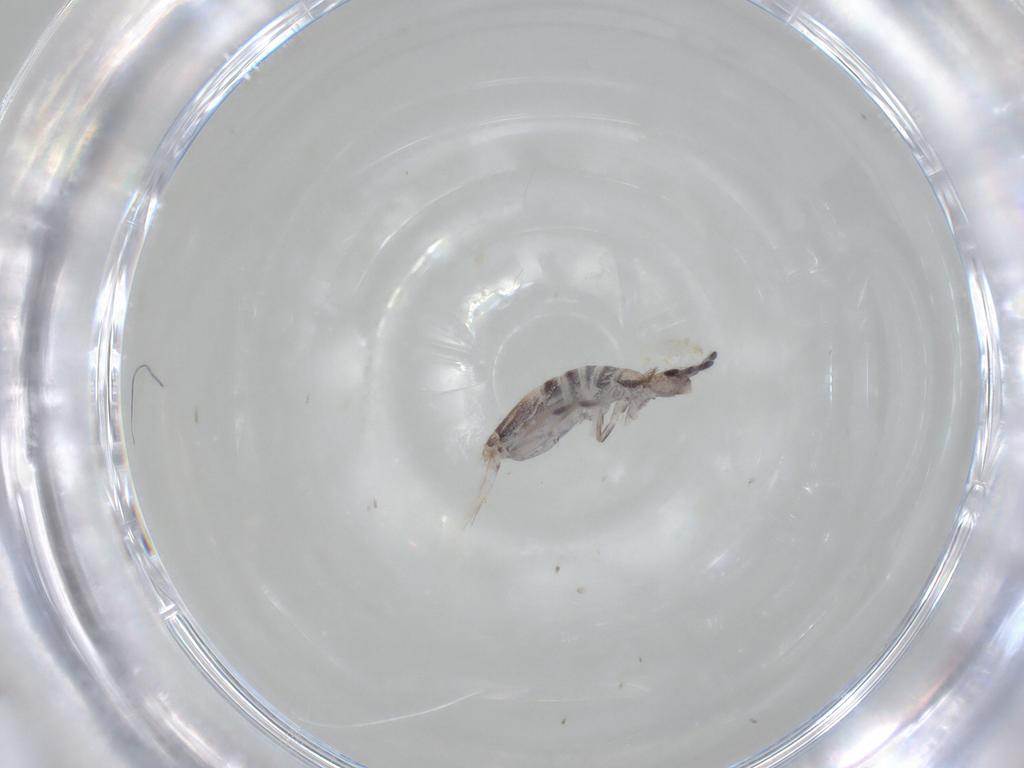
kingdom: Animalia
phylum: Arthropoda
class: Collembola
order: Entomobryomorpha
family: Entomobryidae
